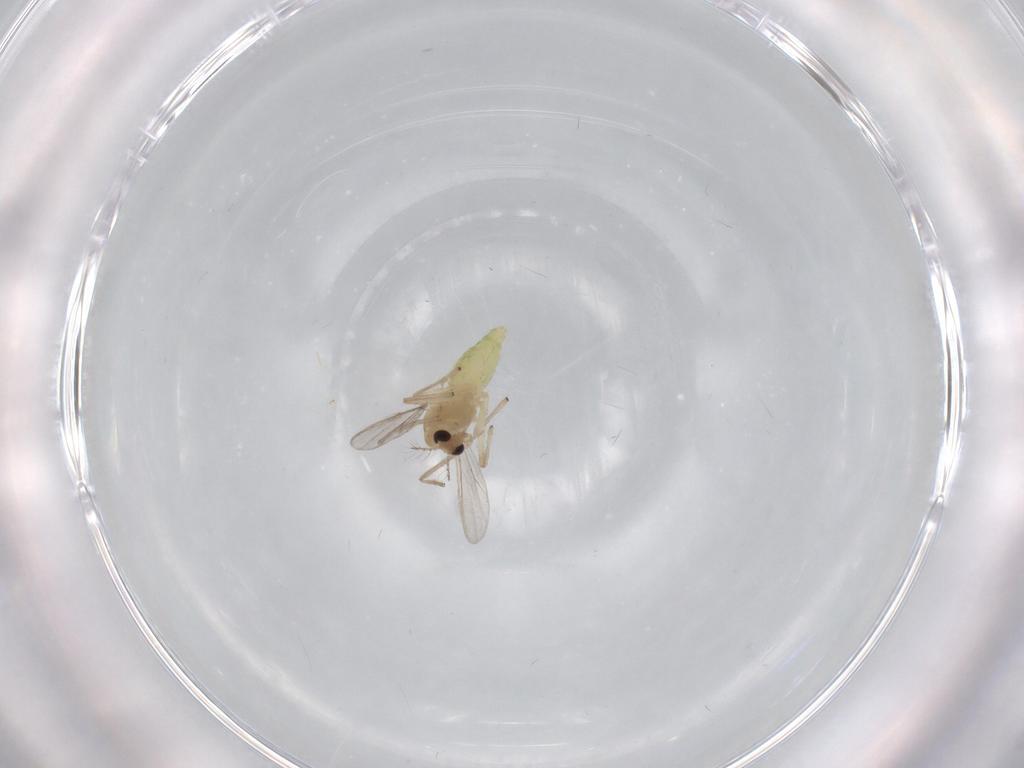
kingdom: Animalia
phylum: Arthropoda
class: Insecta
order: Diptera
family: Chironomidae
